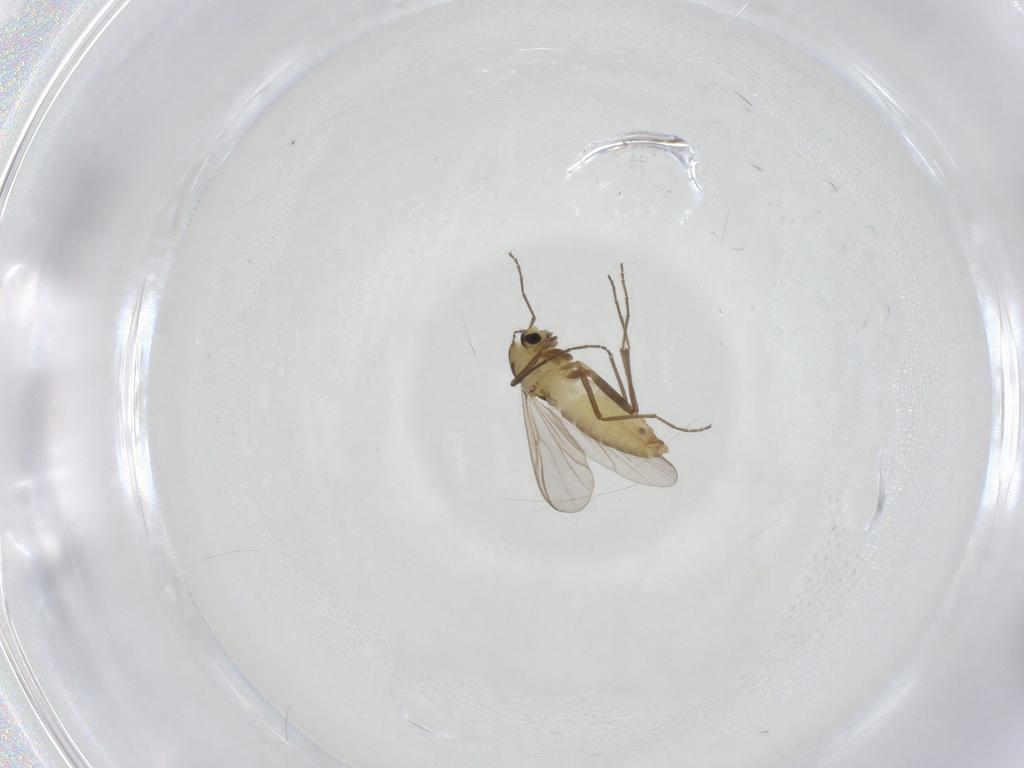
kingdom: Animalia
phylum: Arthropoda
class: Insecta
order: Diptera
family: Chironomidae
